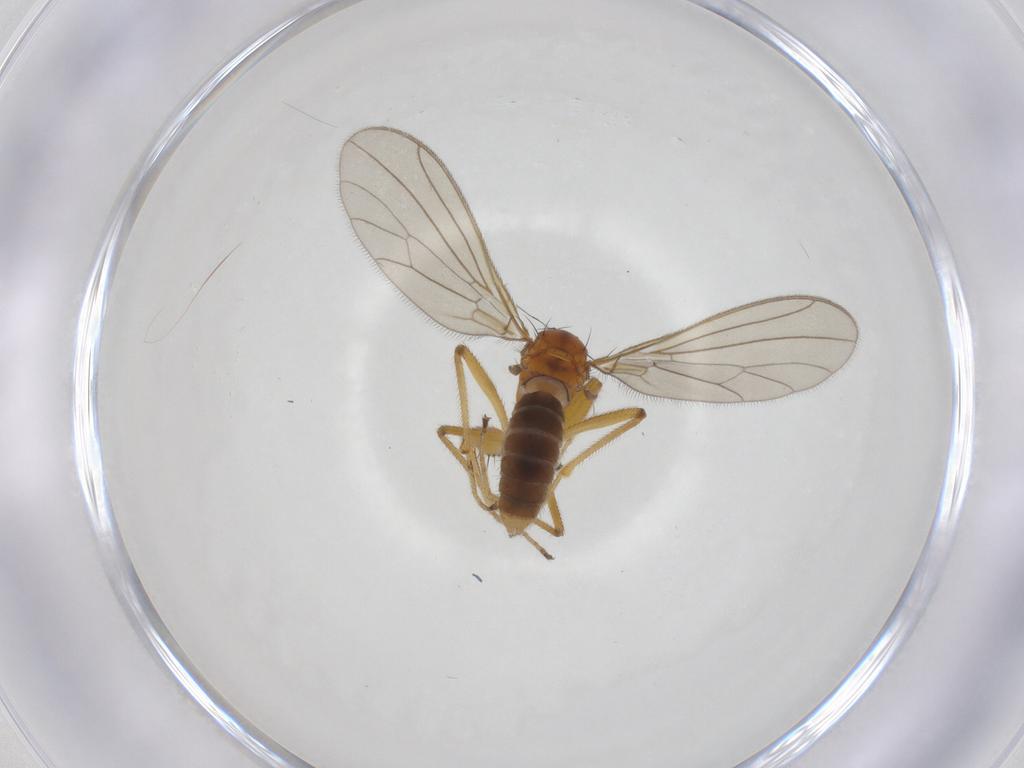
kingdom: Animalia
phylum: Arthropoda
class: Insecta
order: Diptera
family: Empididae
